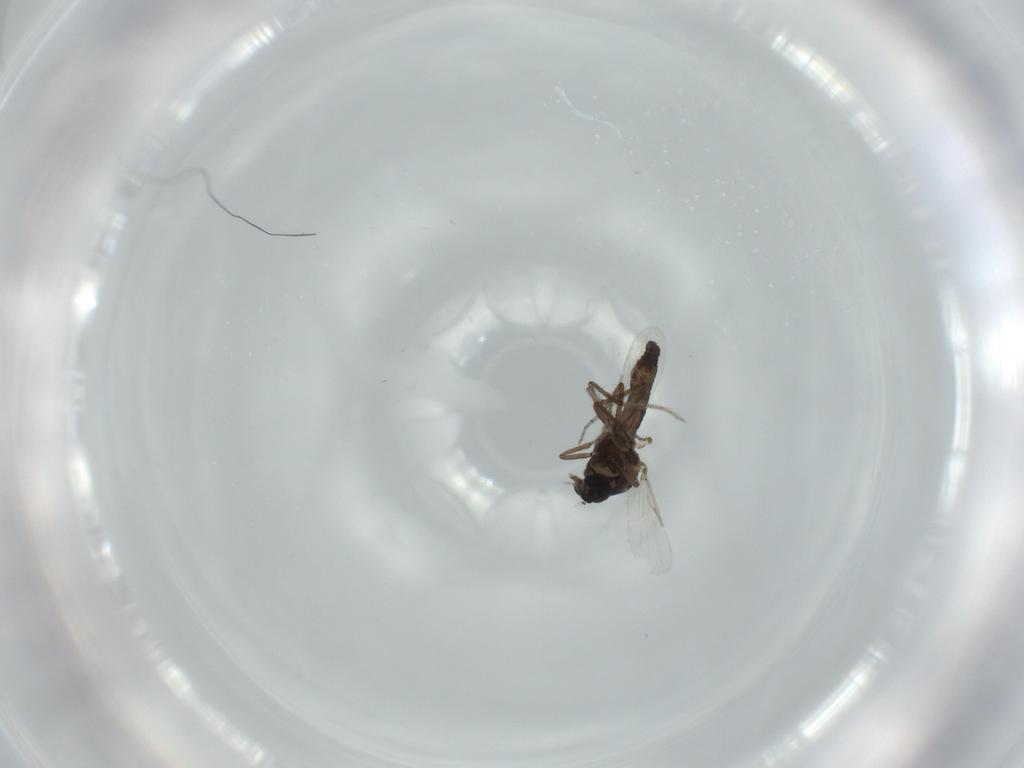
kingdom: Animalia
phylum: Arthropoda
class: Insecta
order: Diptera
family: Ceratopogonidae
